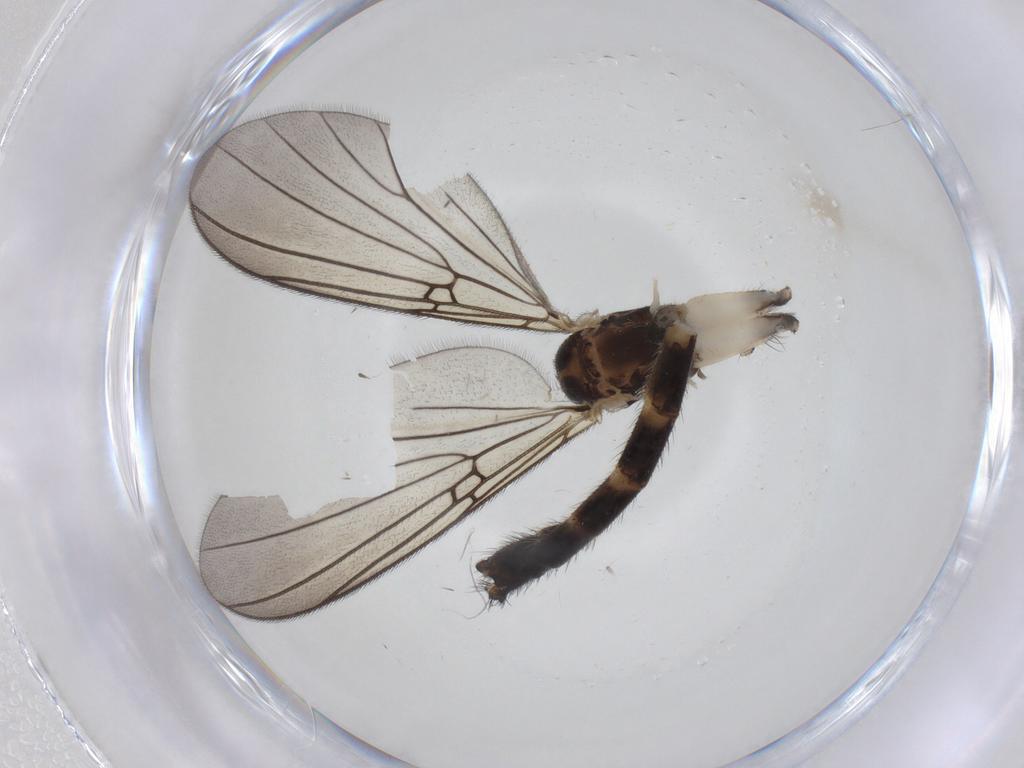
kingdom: Animalia
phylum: Arthropoda
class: Insecta
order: Diptera
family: Mycetophilidae
